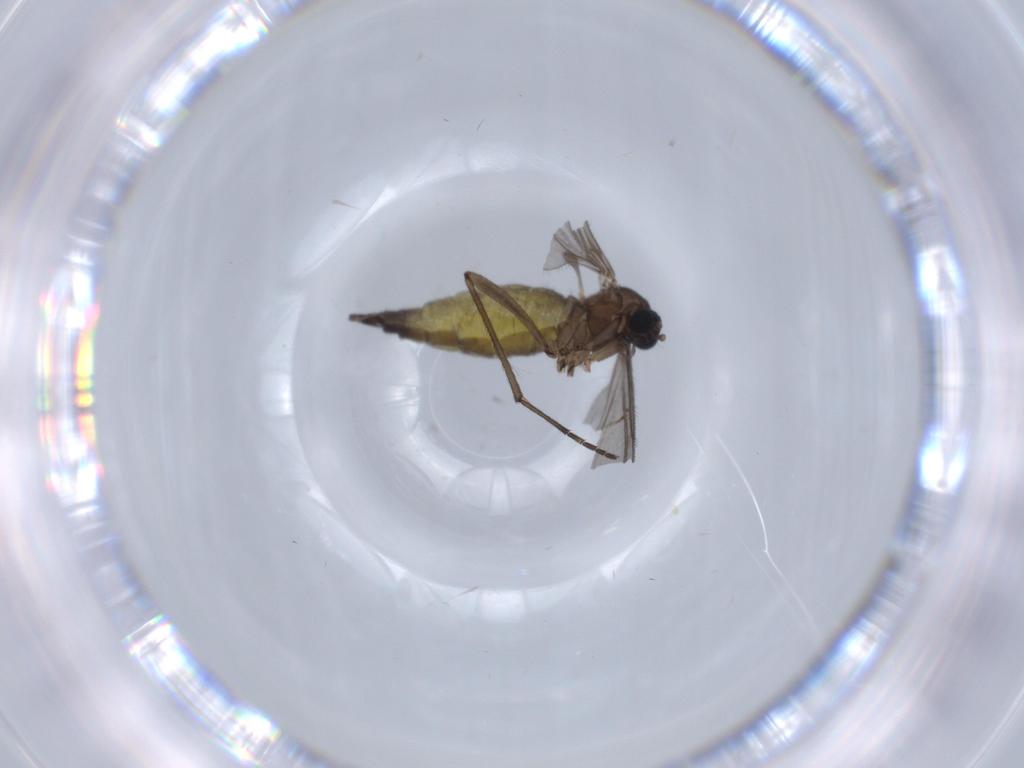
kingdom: Animalia
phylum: Arthropoda
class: Insecta
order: Diptera
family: Sciaridae
